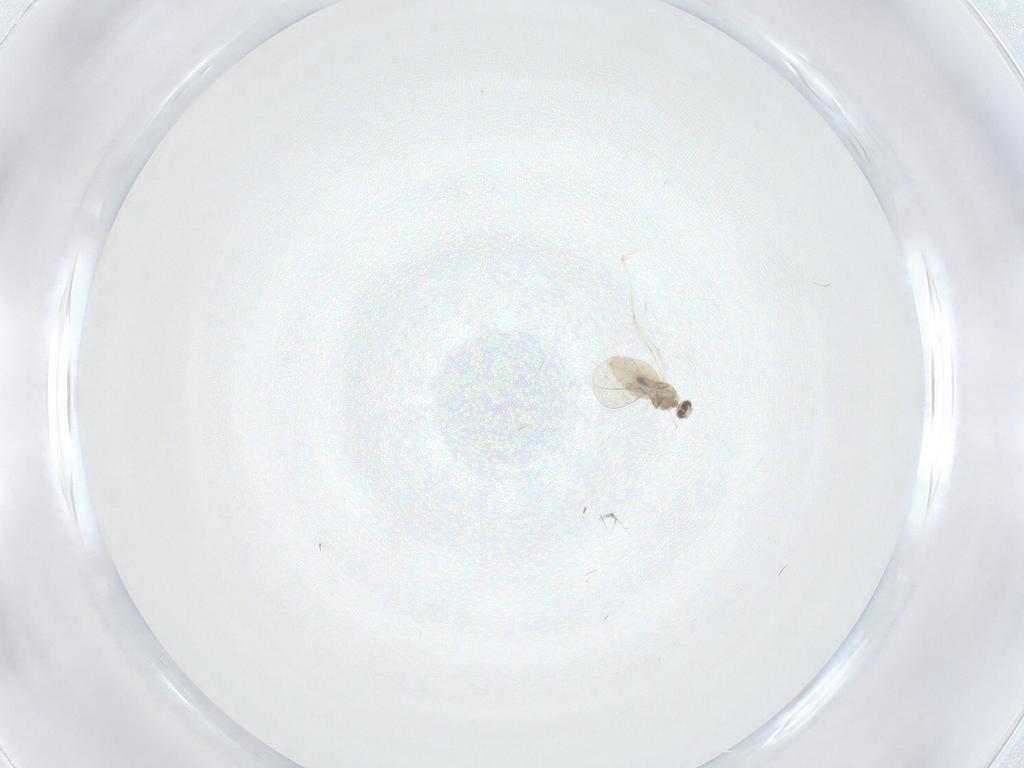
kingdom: Animalia
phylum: Arthropoda
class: Insecta
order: Diptera
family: Cecidomyiidae
